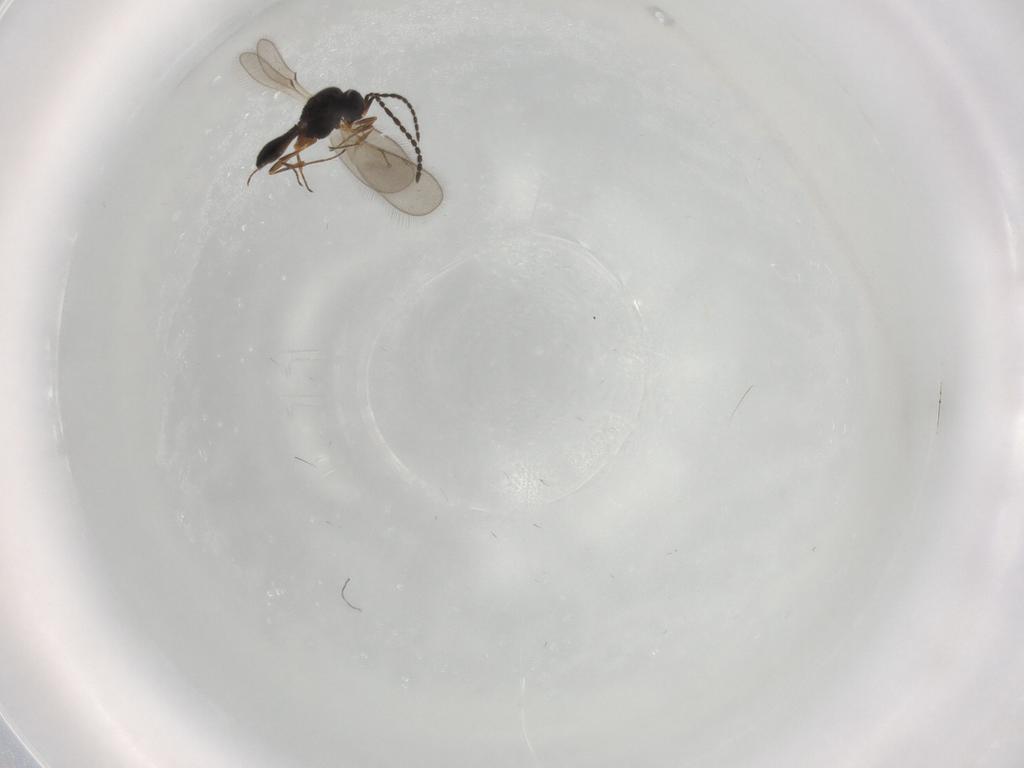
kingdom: Animalia
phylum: Arthropoda
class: Insecta
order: Hymenoptera
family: Scelionidae
